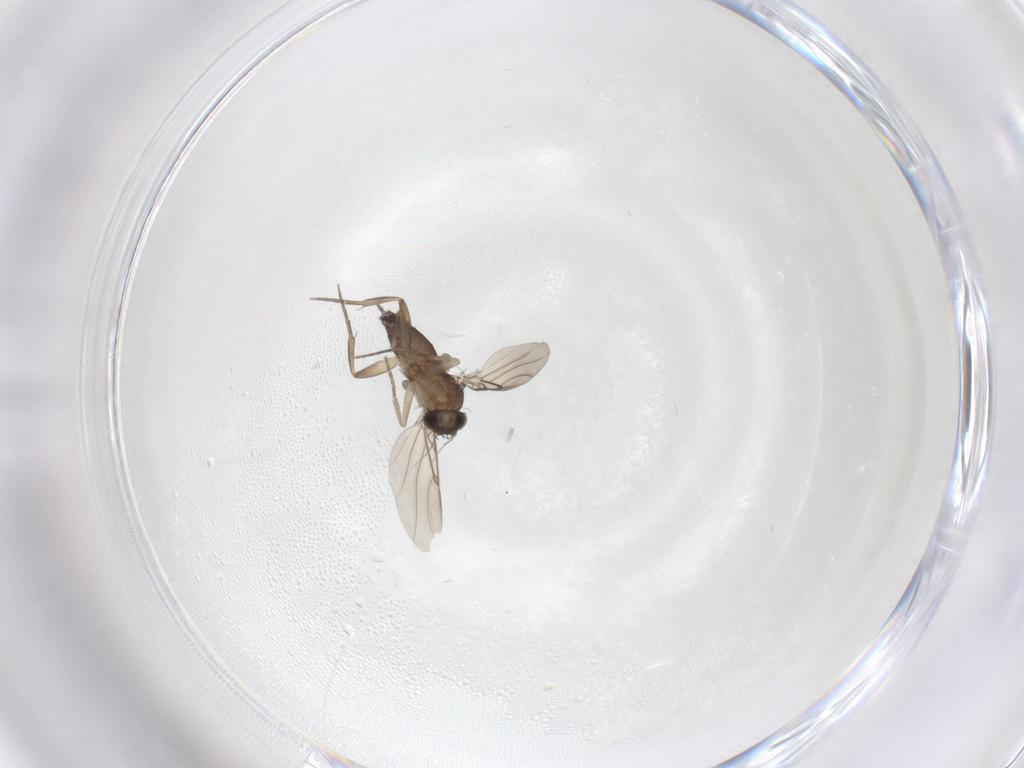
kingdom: Animalia
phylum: Arthropoda
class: Insecta
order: Diptera
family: Phoridae
